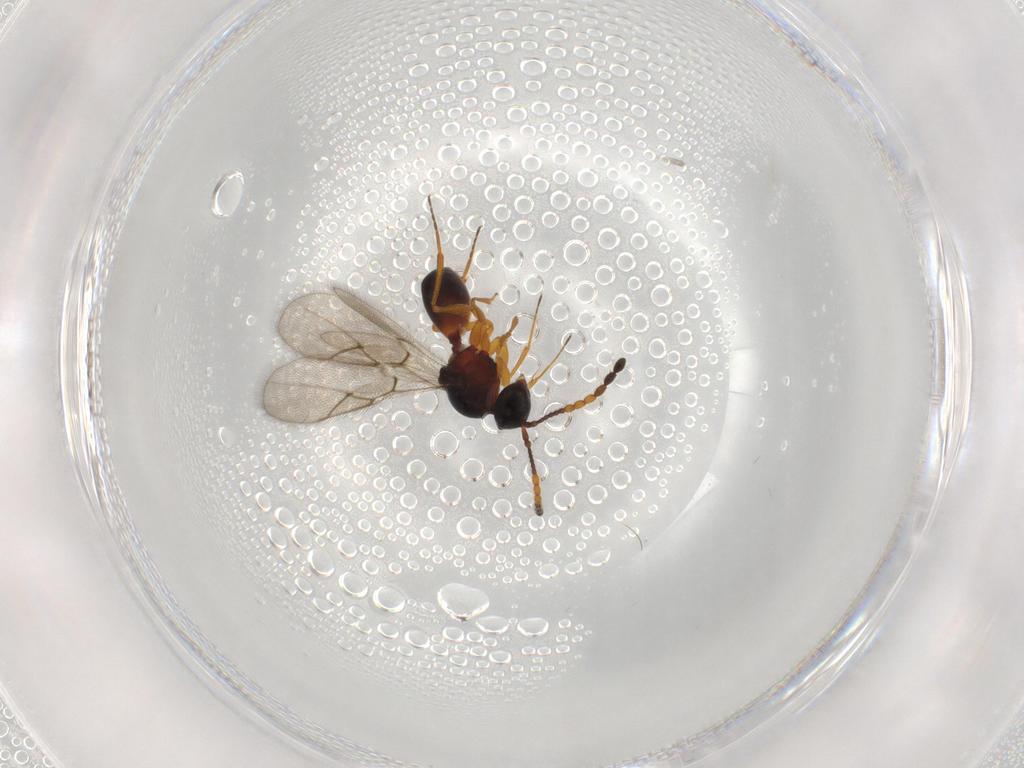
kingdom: Animalia
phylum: Arthropoda
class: Insecta
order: Hymenoptera
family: Figitidae
